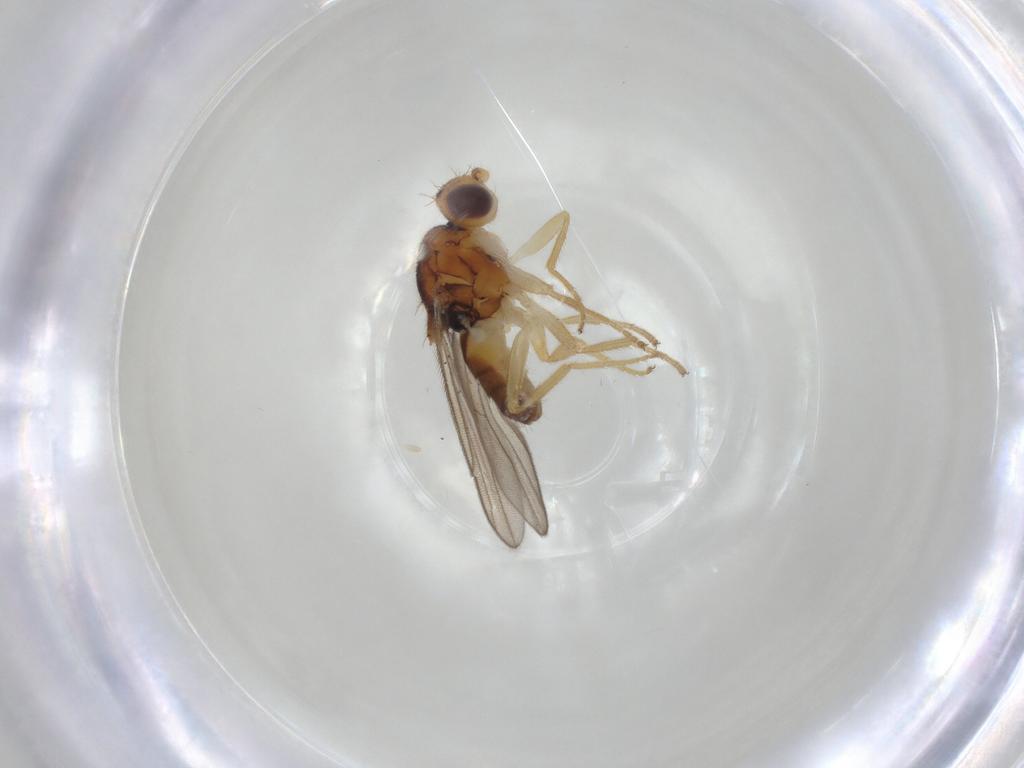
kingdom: Animalia
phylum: Arthropoda
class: Insecta
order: Diptera
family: Chloropidae
